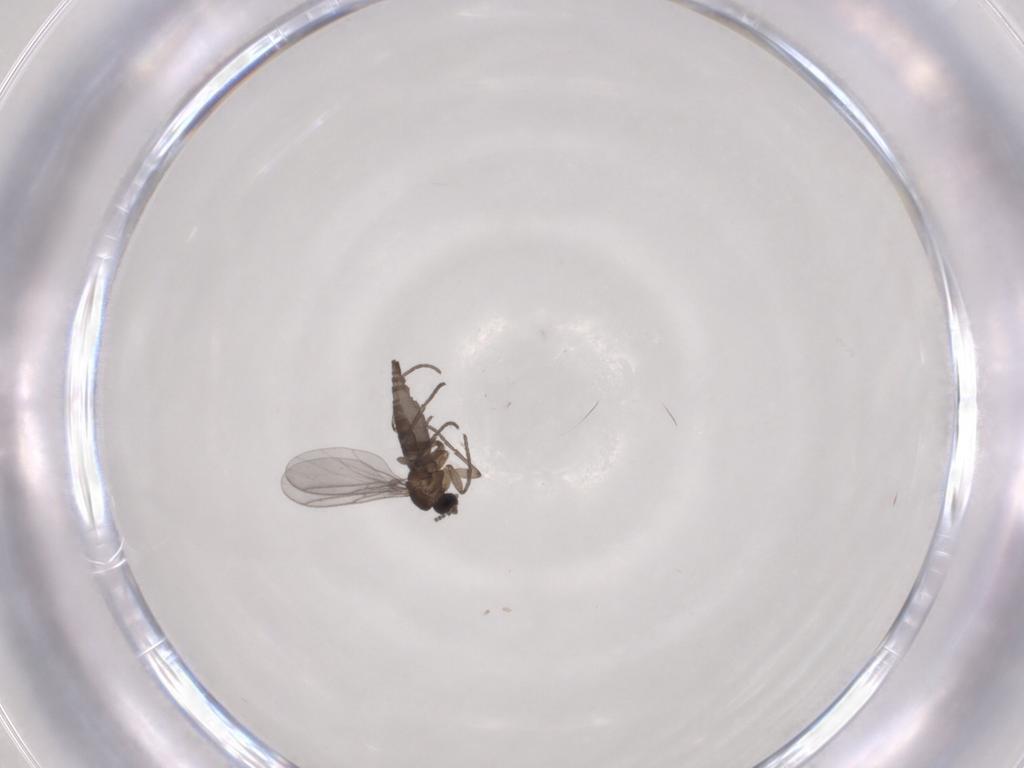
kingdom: Animalia
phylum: Arthropoda
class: Insecta
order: Diptera
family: Sciaridae
